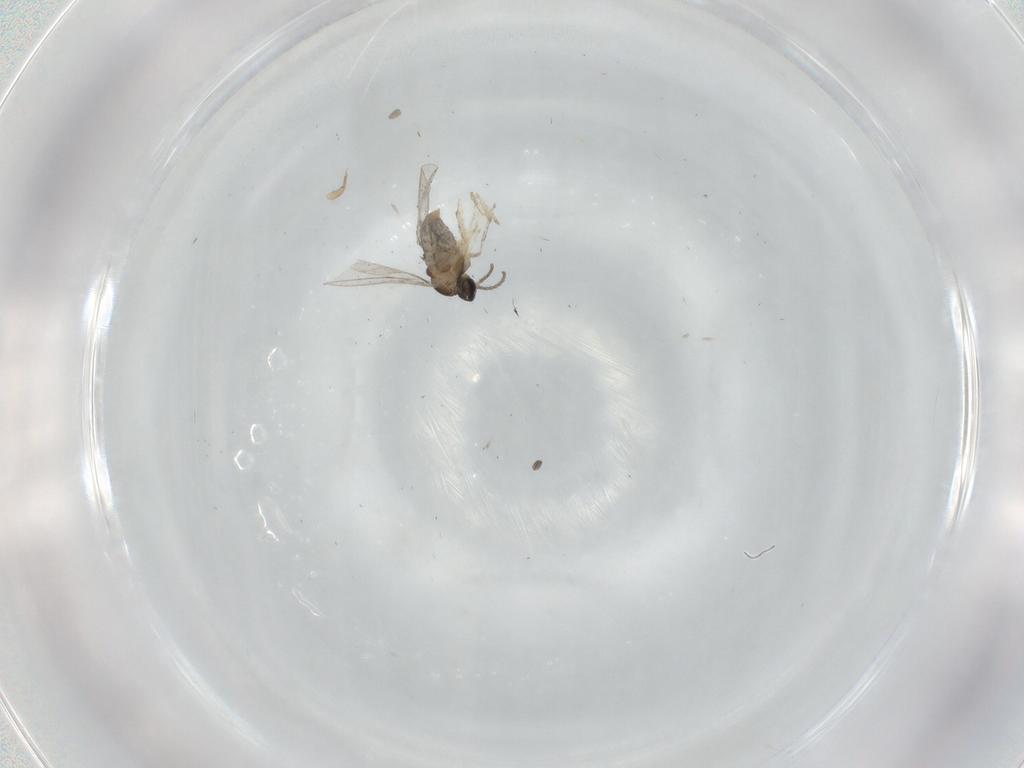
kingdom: Animalia
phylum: Arthropoda
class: Insecta
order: Diptera
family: Cecidomyiidae
